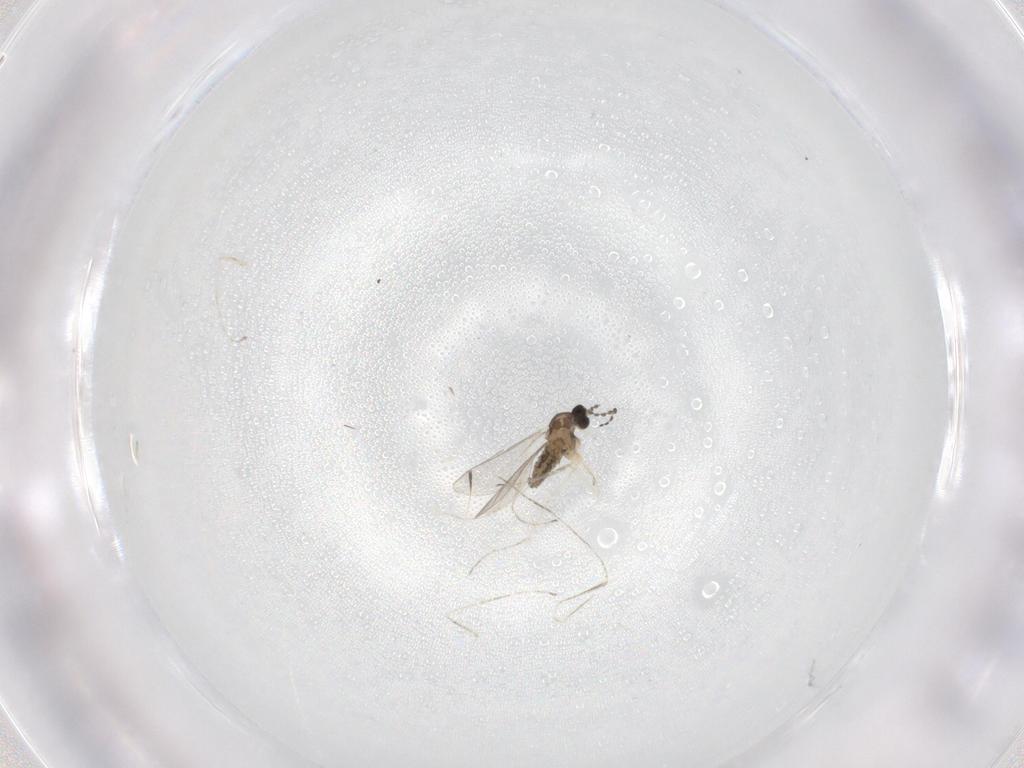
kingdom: Animalia
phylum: Arthropoda
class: Insecta
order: Diptera
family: Cecidomyiidae
